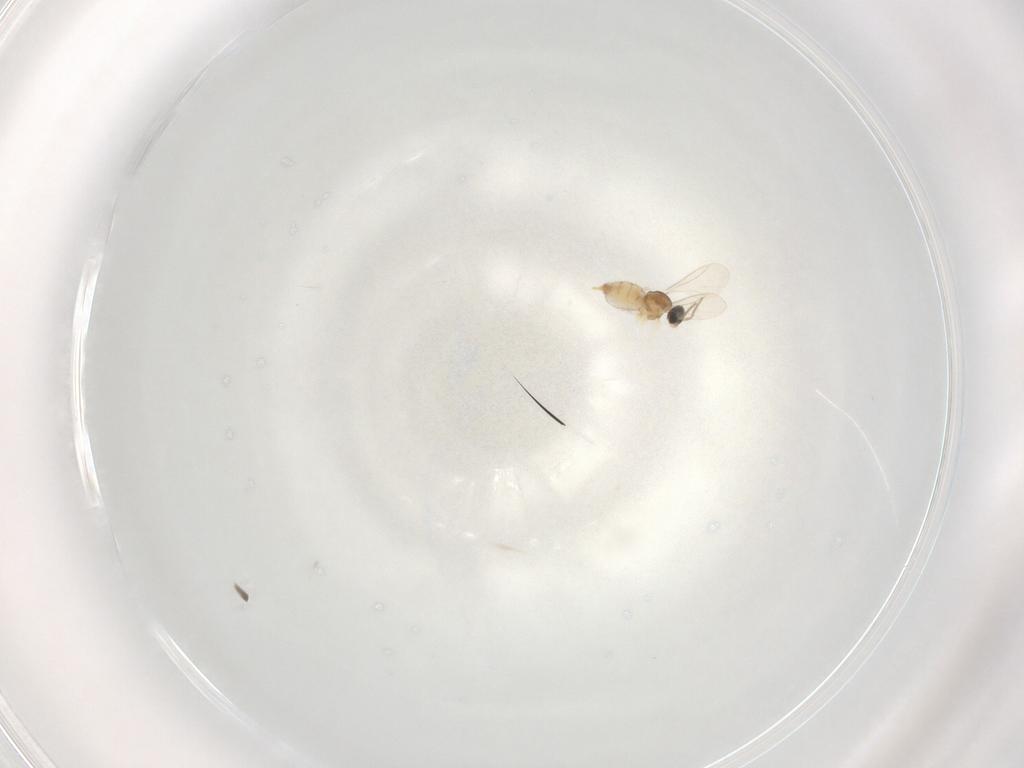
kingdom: Animalia
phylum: Arthropoda
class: Insecta
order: Diptera
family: Cecidomyiidae
